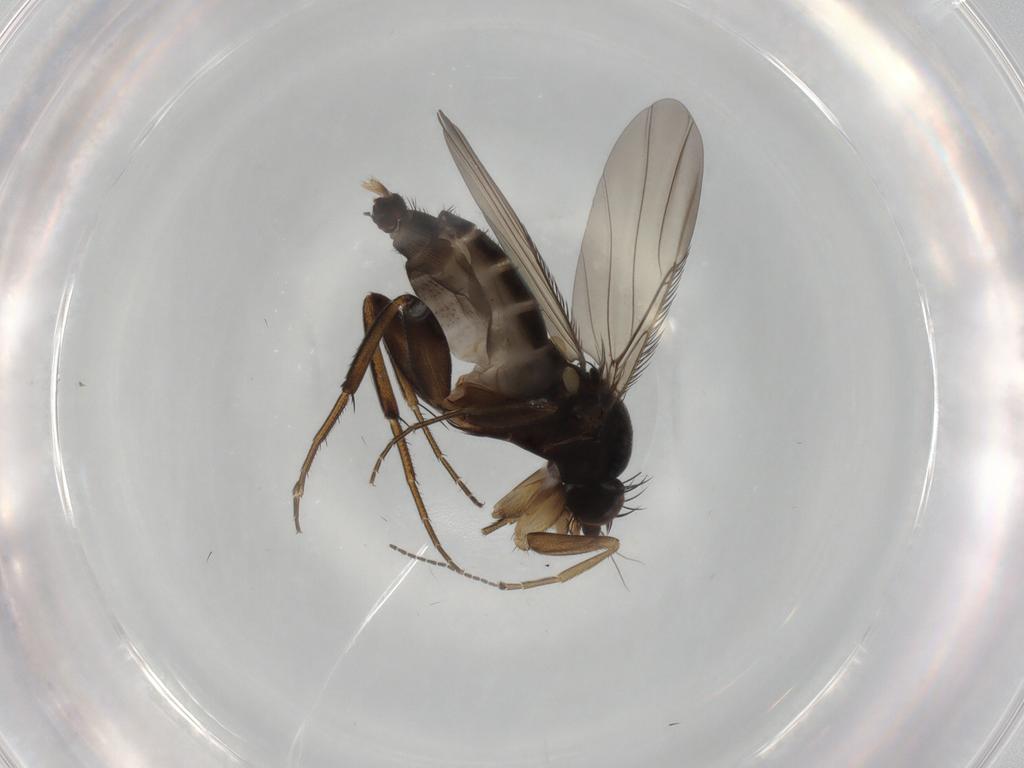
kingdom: Animalia
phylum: Arthropoda
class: Insecta
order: Diptera
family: Phoridae
